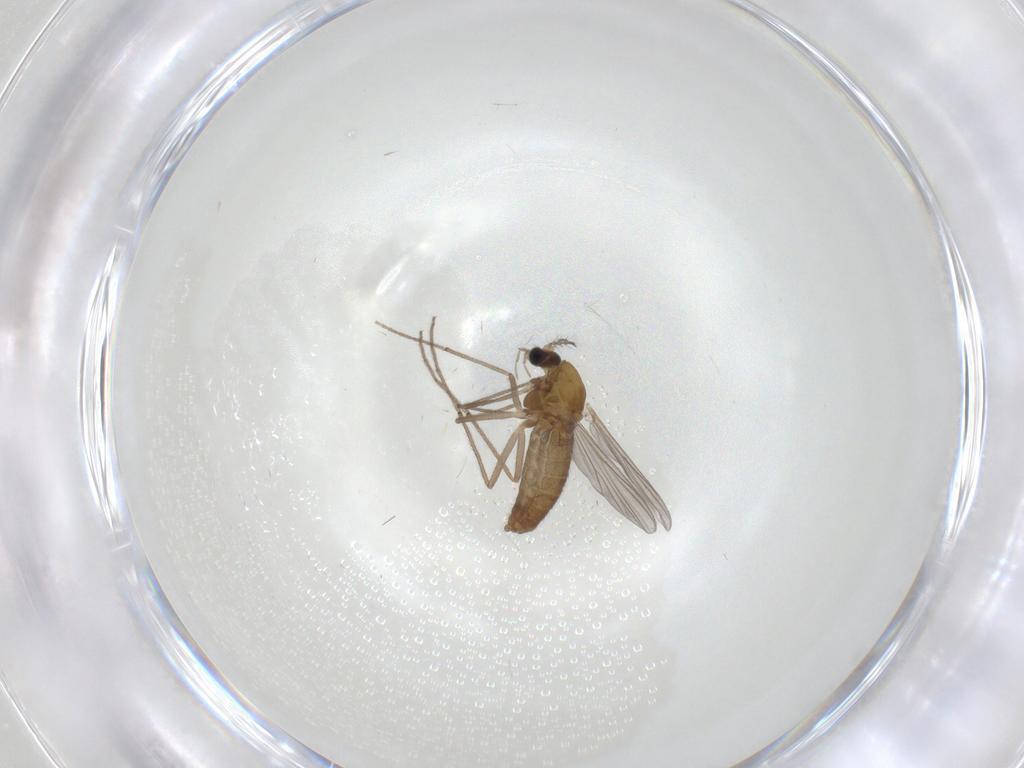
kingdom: Animalia
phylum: Arthropoda
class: Insecta
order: Diptera
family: Chironomidae
